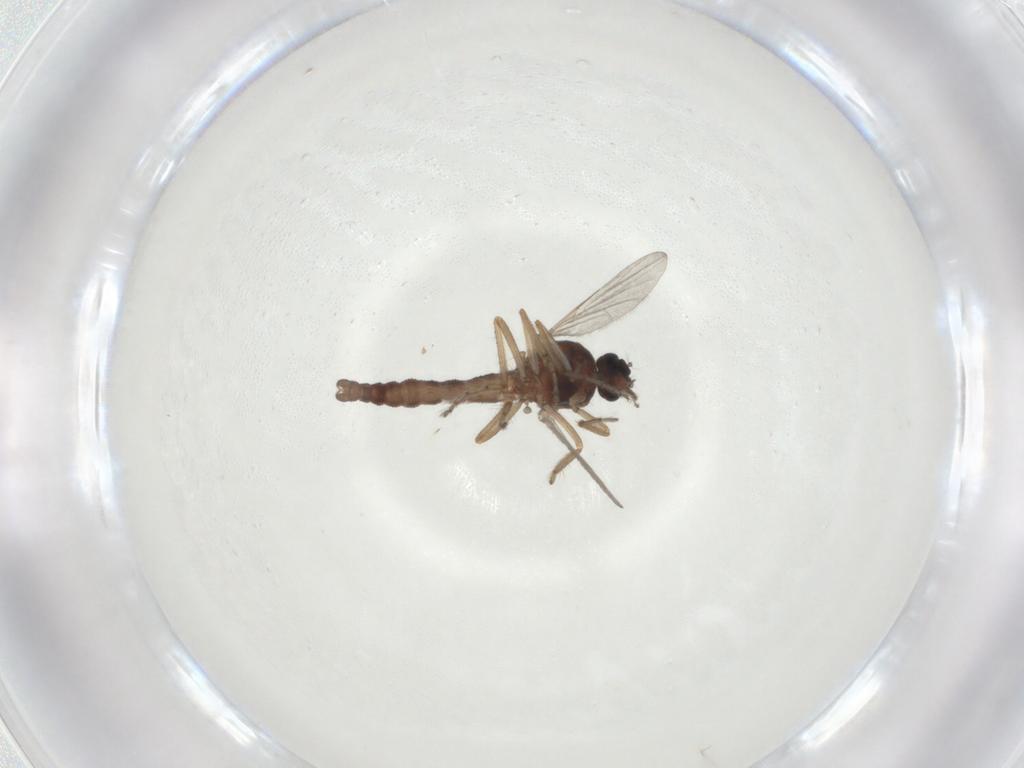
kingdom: Animalia
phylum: Arthropoda
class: Insecta
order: Diptera
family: Ceratopogonidae
